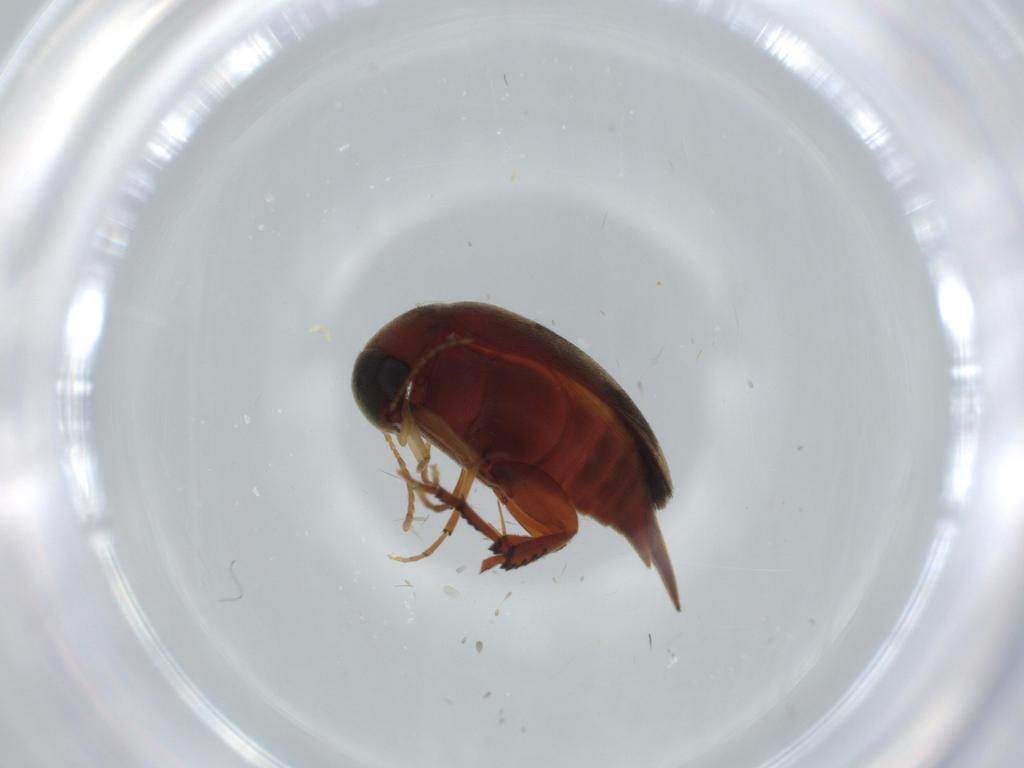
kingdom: Animalia
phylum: Arthropoda
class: Insecta
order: Coleoptera
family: Mordellidae
